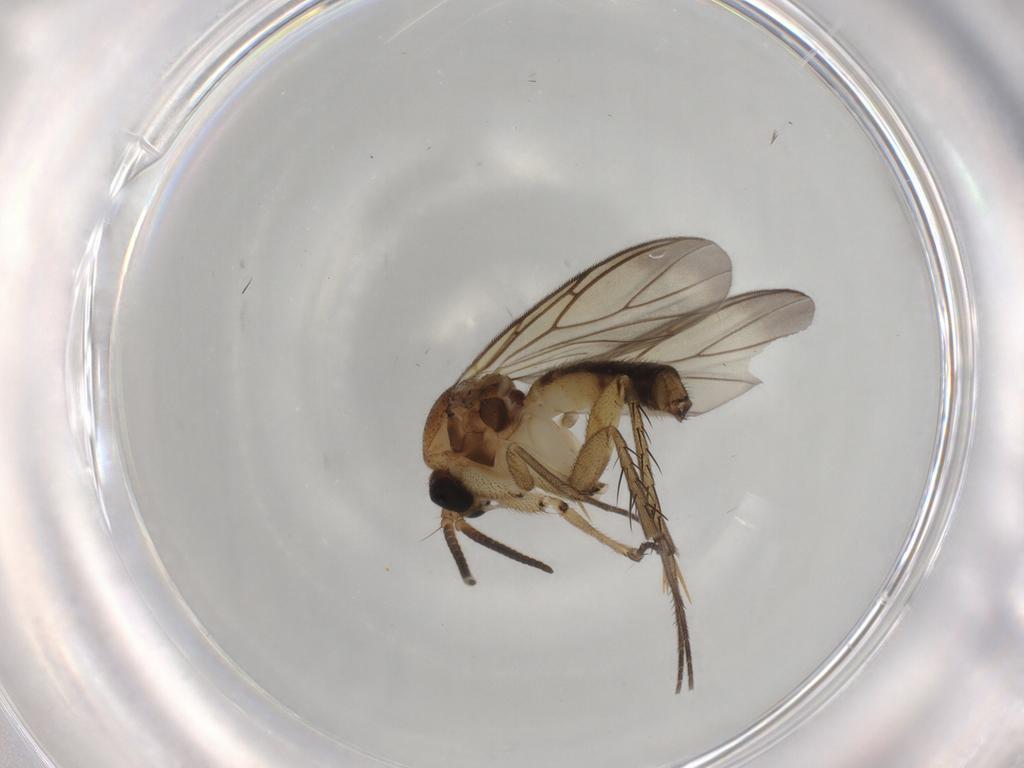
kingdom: Animalia
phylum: Arthropoda
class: Insecta
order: Diptera
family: Mycetophilidae
